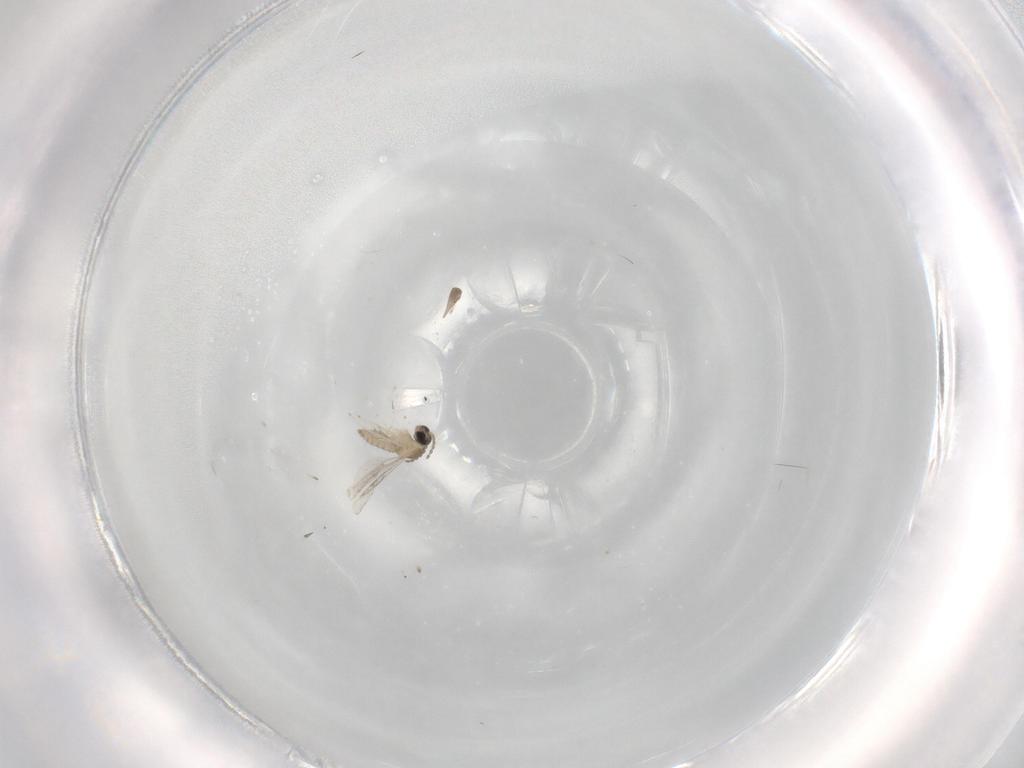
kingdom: Animalia
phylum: Arthropoda
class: Insecta
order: Diptera
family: Cecidomyiidae
